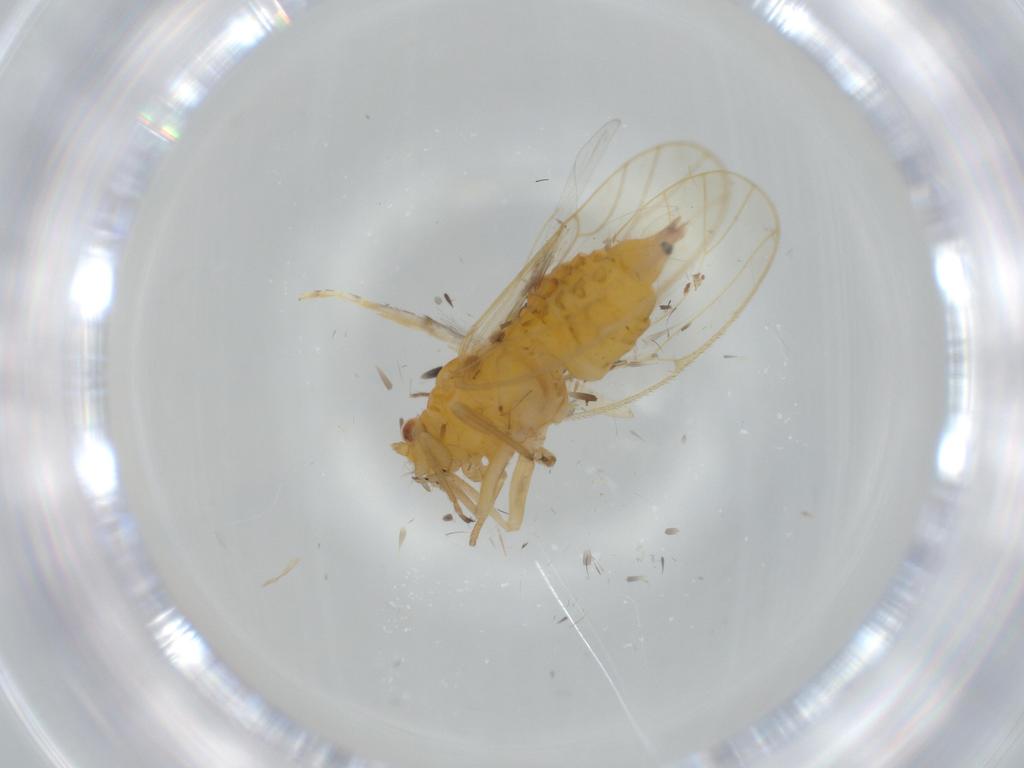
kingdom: Animalia
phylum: Arthropoda
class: Insecta
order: Hemiptera
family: Psyllidae
